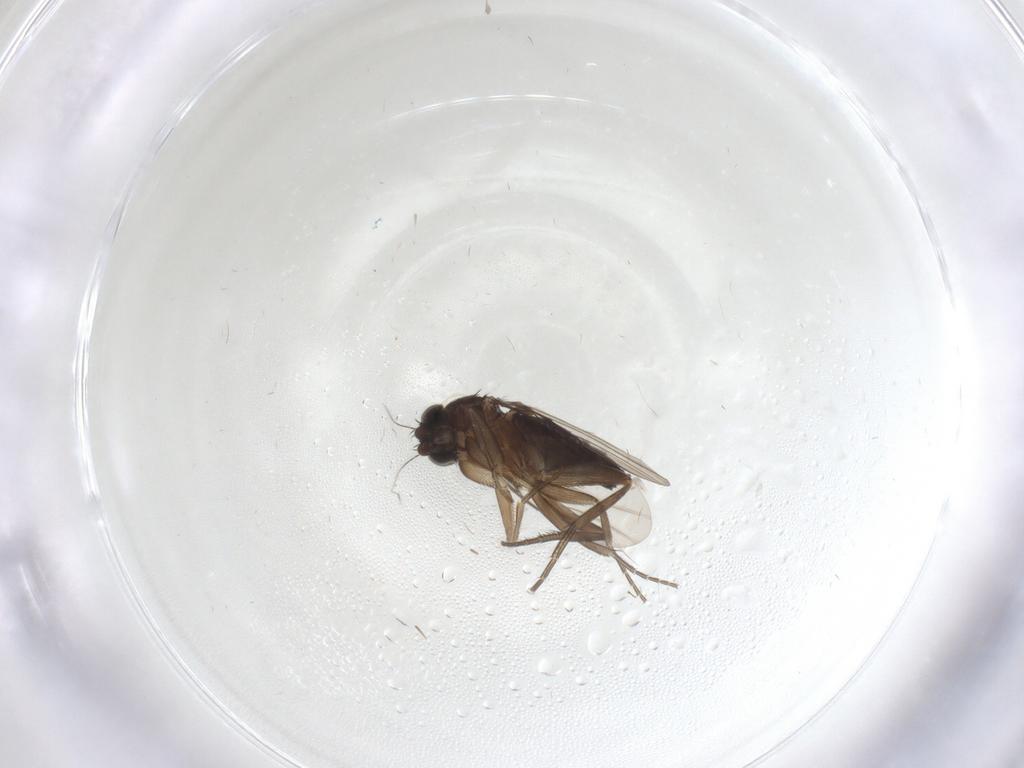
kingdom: Animalia
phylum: Arthropoda
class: Insecta
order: Diptera
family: Phoridae
